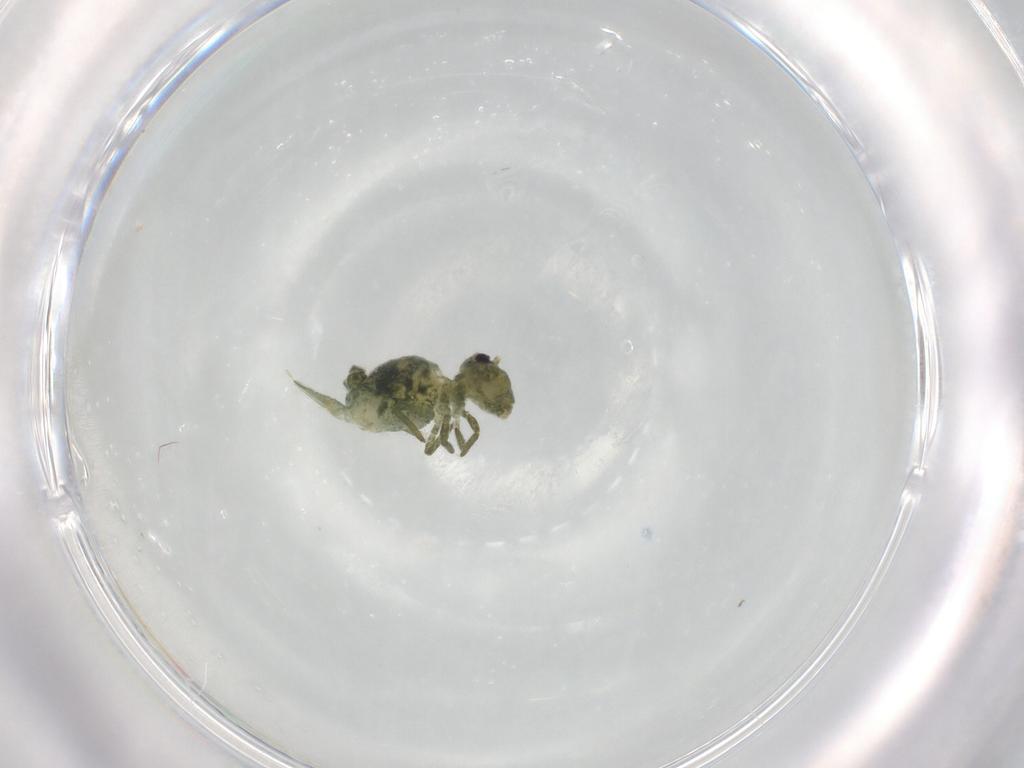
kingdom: Animalia
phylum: Arthropoda
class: Collembola
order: Symphypleona
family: Sminthuridae
